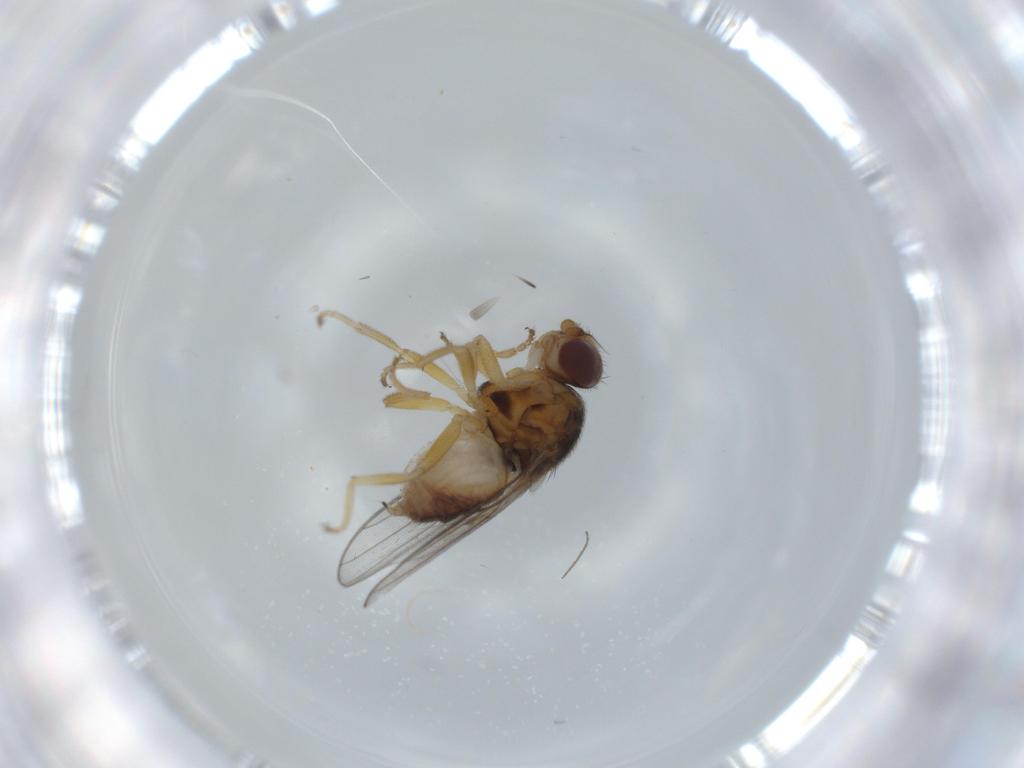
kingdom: Animalia
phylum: Arthropoda
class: Insecta
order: Diptera
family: Chloropidae
